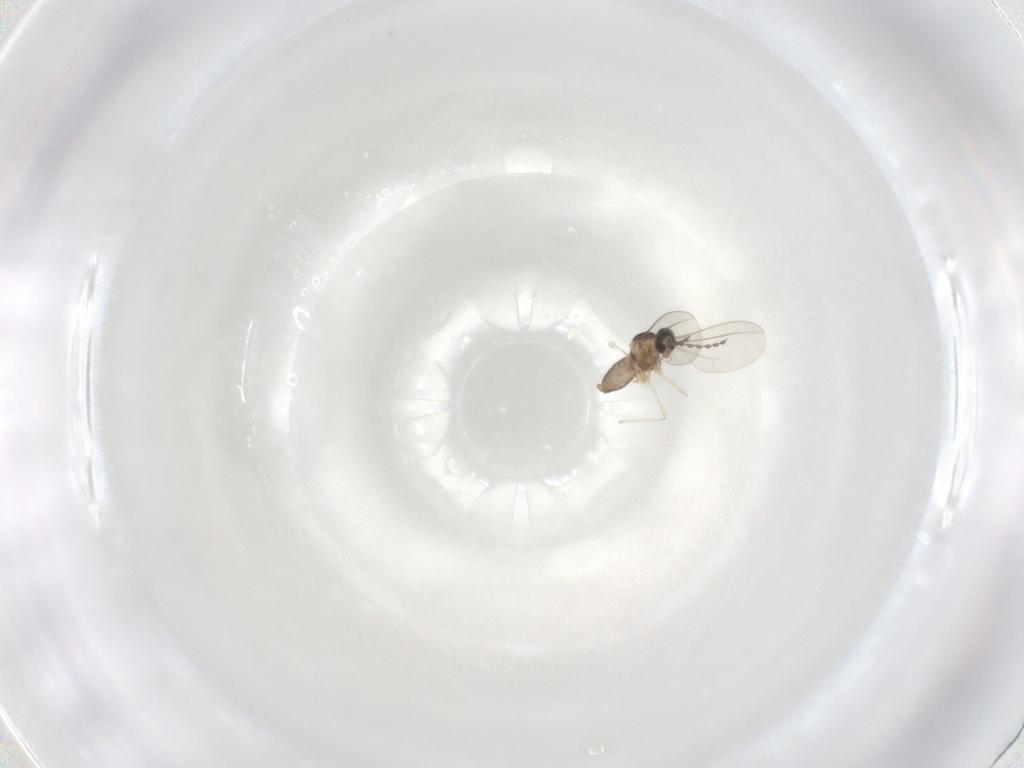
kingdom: Animalia
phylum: Arthropoda
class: Insecta
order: Diptera
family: Cecidomyiidae
